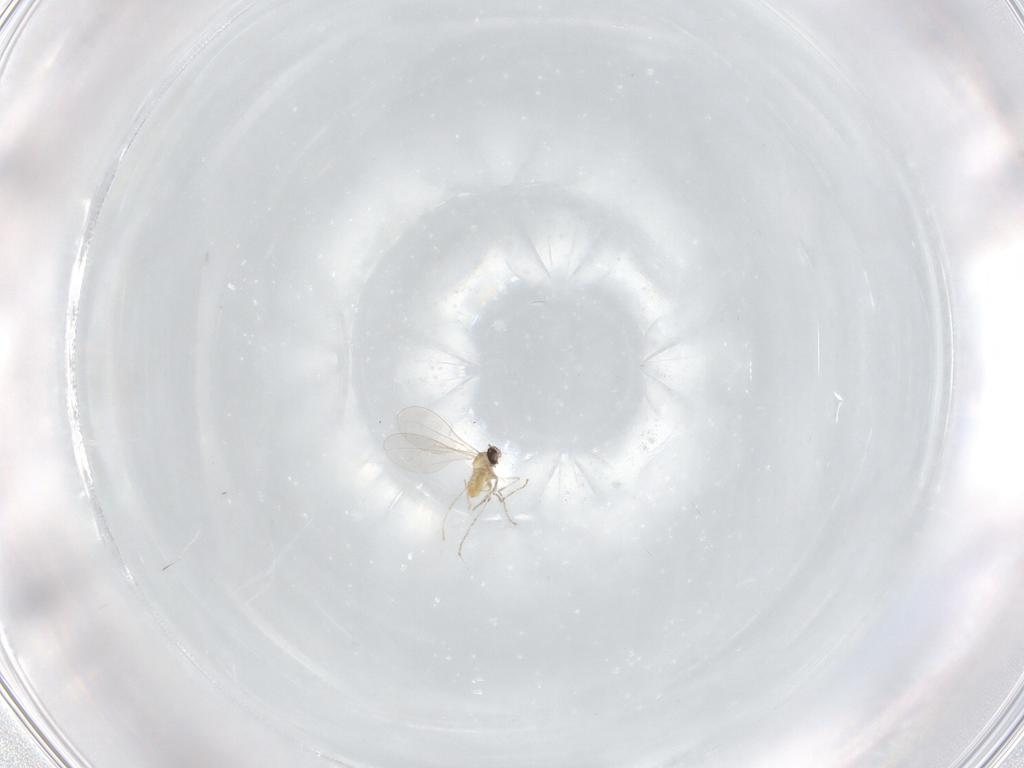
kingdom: Animalia
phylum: Arthropoda
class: Insecta
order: Diptera
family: Cecidomyiidae
